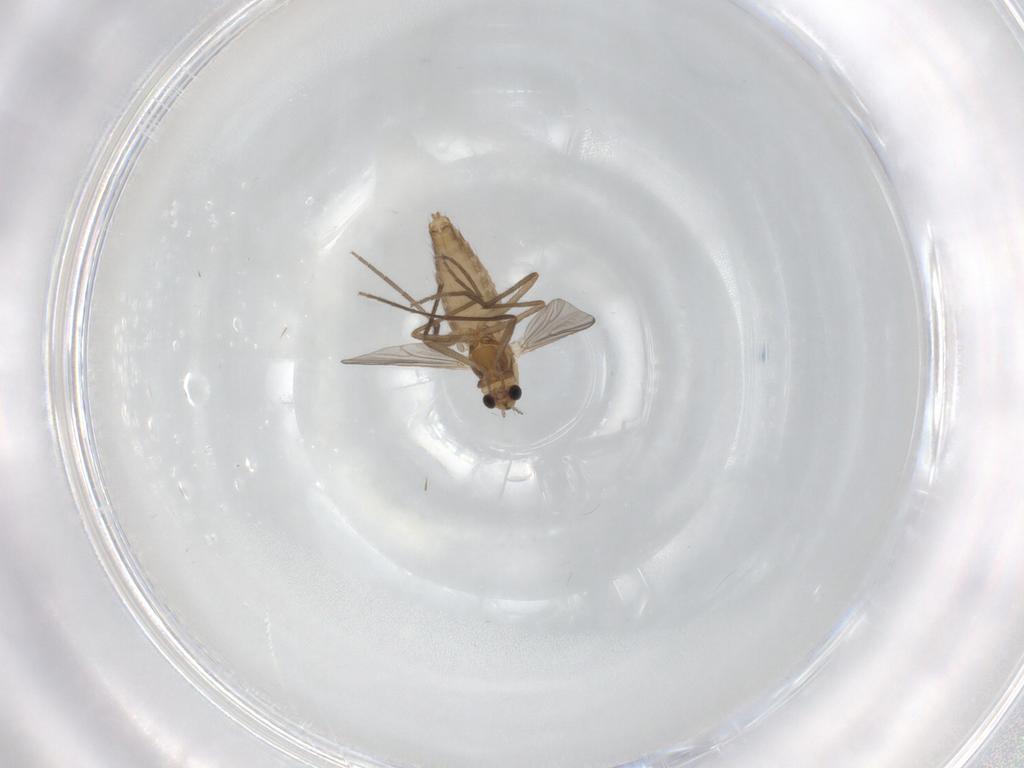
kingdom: Animalia
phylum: Arthropoda
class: Insecta
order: Diptera
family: Chironomidae
